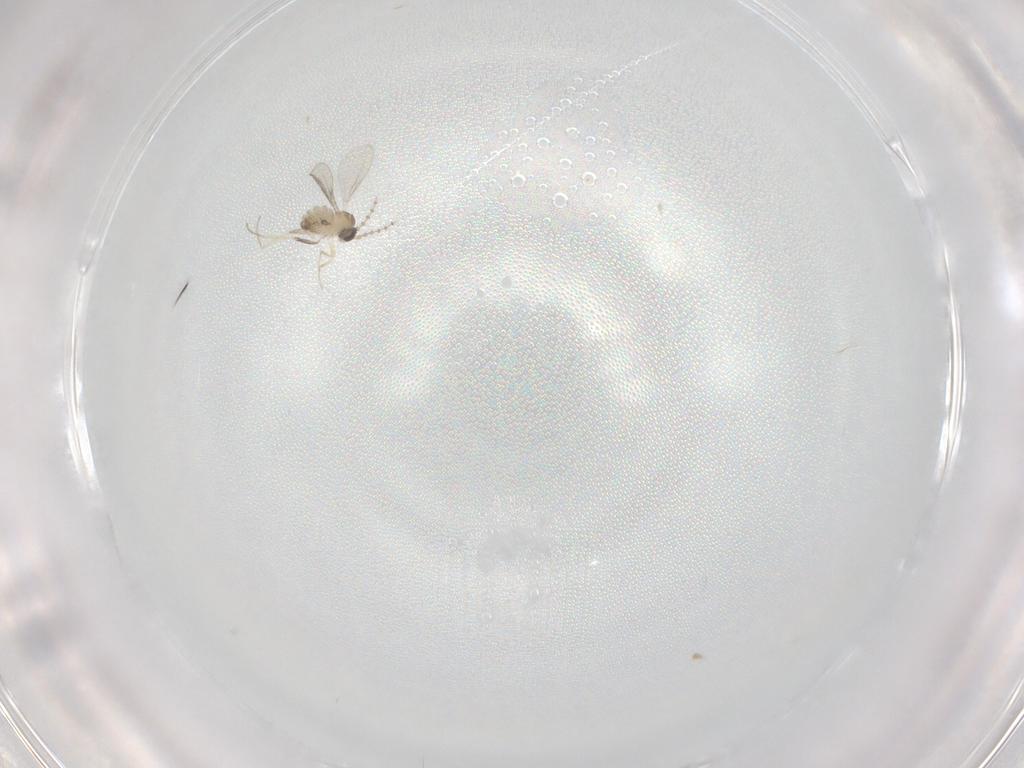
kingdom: Animalia
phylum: Arthropoda
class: Insecta
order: Diptera
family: Cecidomyiidae
